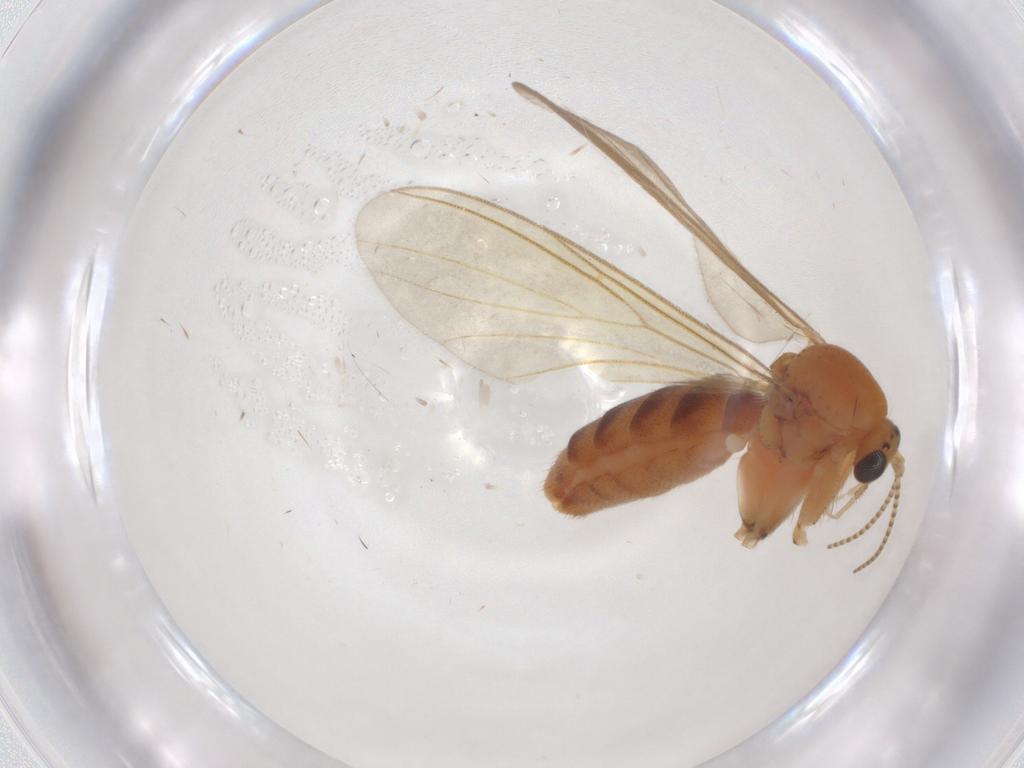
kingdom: Animalia
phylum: Arthropoda
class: Insecta
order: Diptera
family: Mycetophilidae
